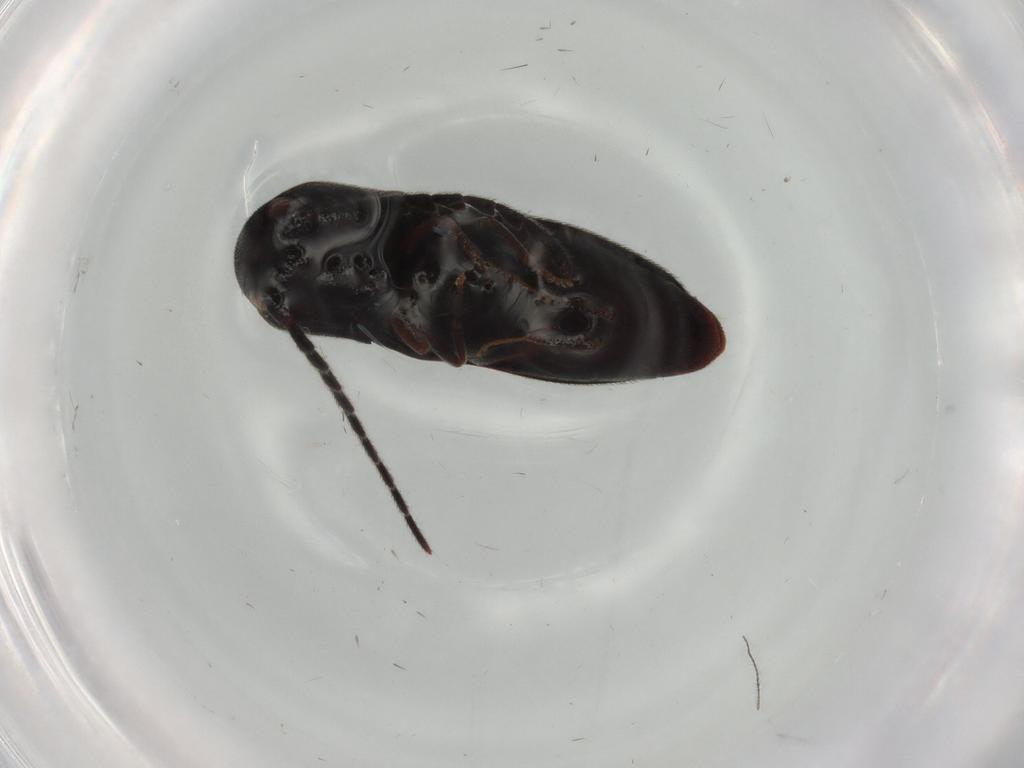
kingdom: Animalia
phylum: Arthropoda
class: Insecta
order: Coleoptera
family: Eucnemidae
